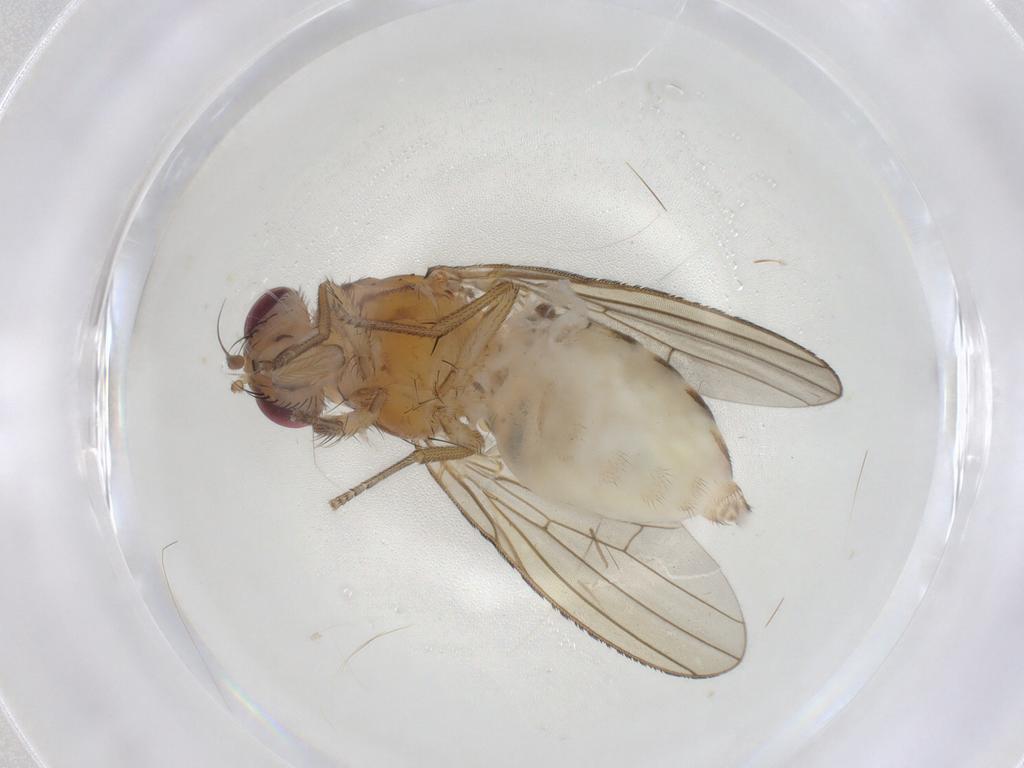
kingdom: Animalia
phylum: Arthropoda
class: Insecta
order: Diptera
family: Lauxaniidae
